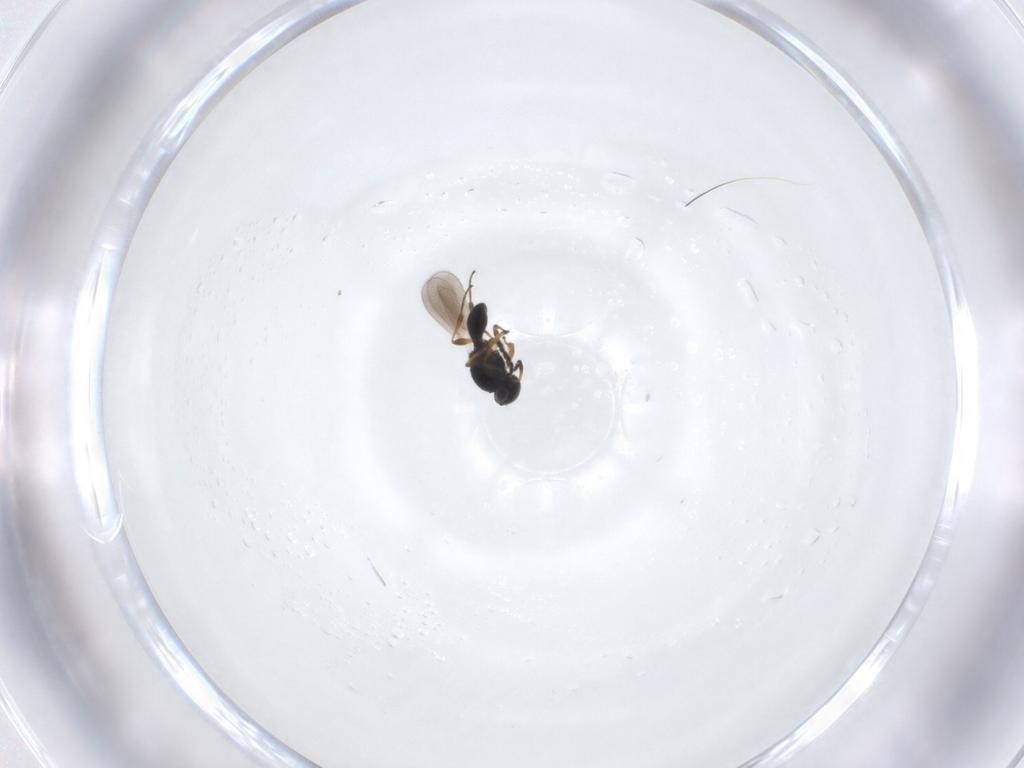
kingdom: Animalia
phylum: Arthropoda
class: Insecta
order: Hymenoptera
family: Platygastridae
